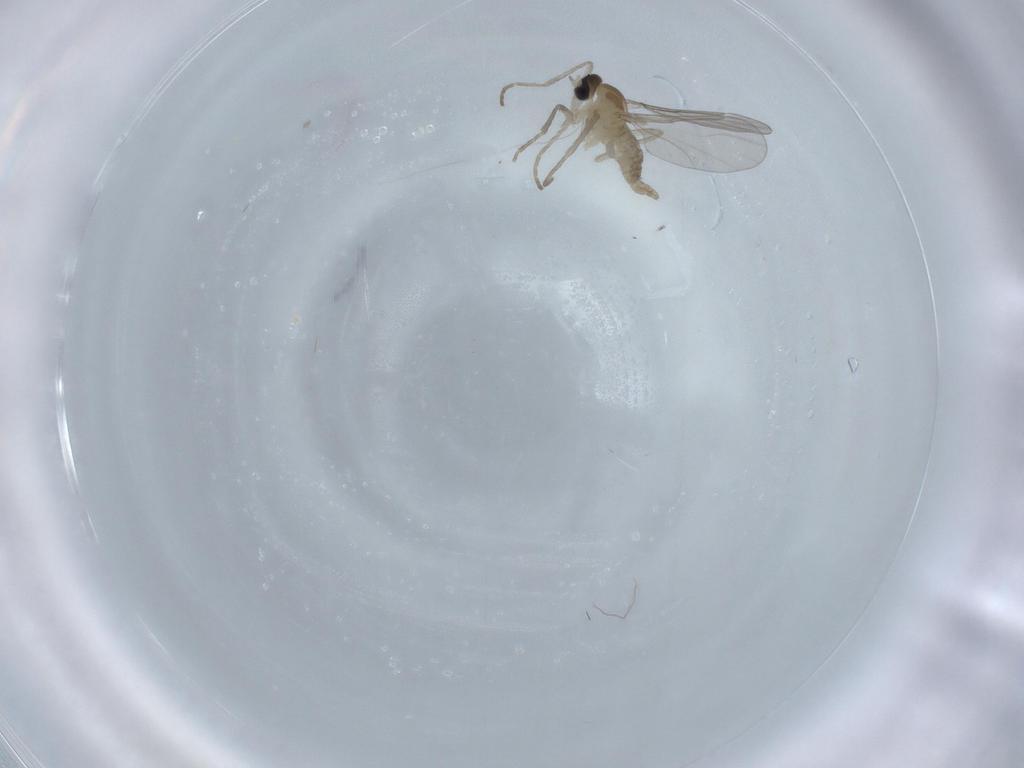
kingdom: Animalia
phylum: Arthropoda
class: Insecta
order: Diptera
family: Cecidomyiidae
